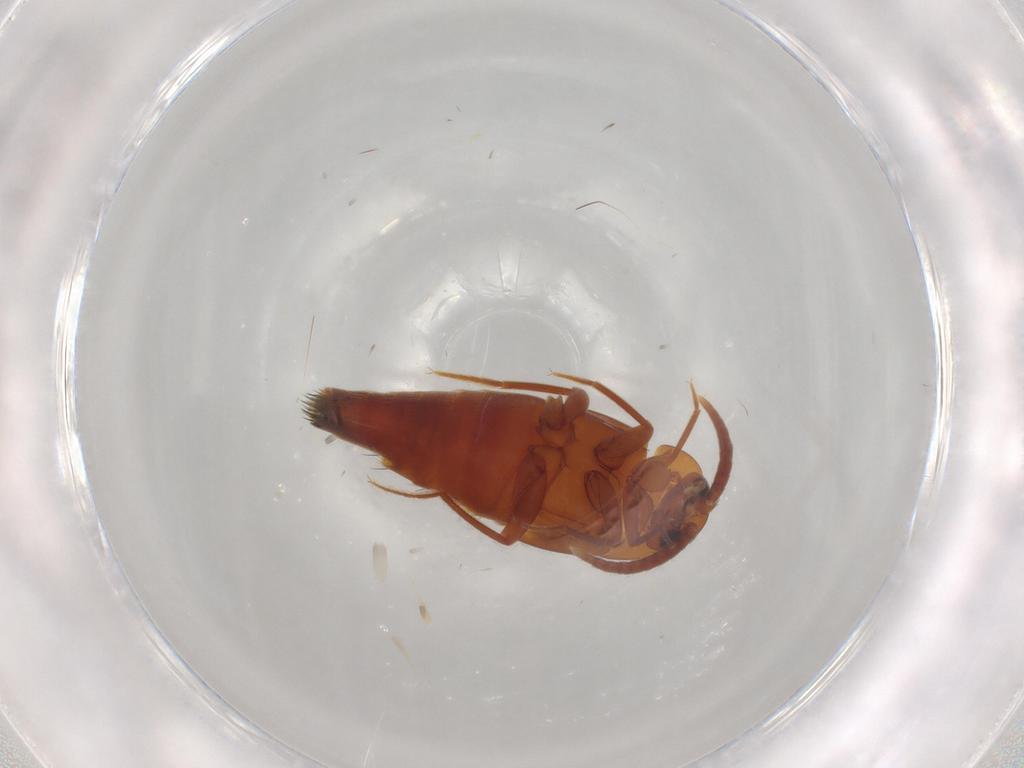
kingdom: Animalia
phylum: Arthropoda
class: Insecta
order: Coleoptera
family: Staphylinidae
